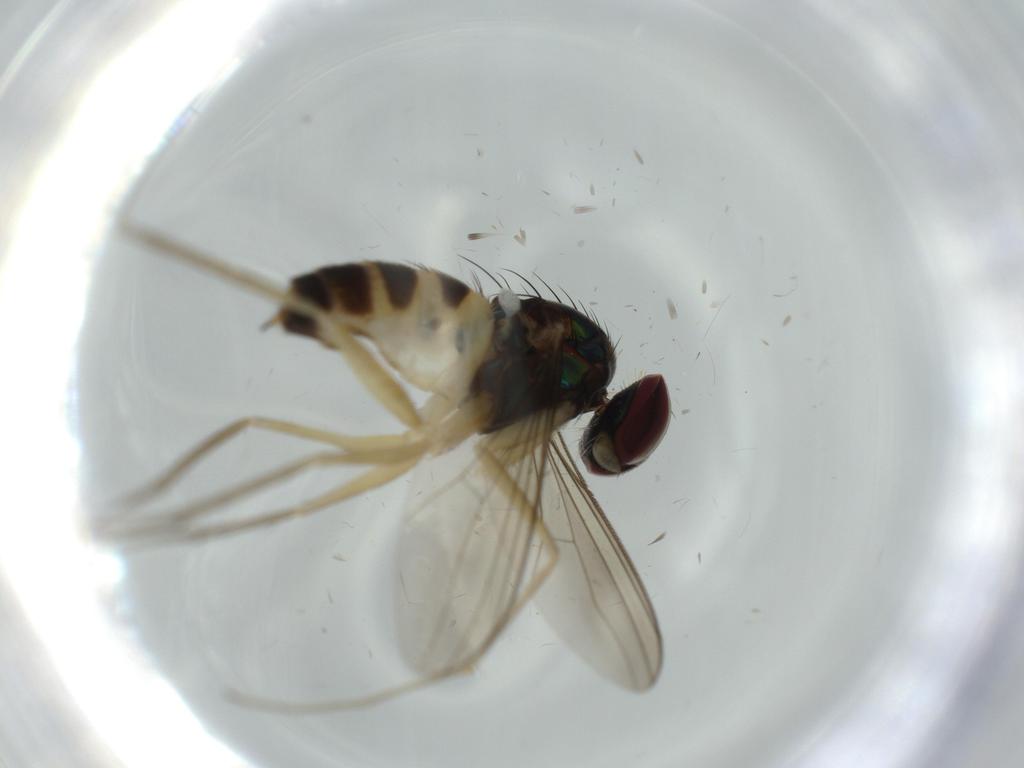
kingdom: Animalia
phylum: Arthropoda
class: Insecta
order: Diptera
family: Dolichopodidae
